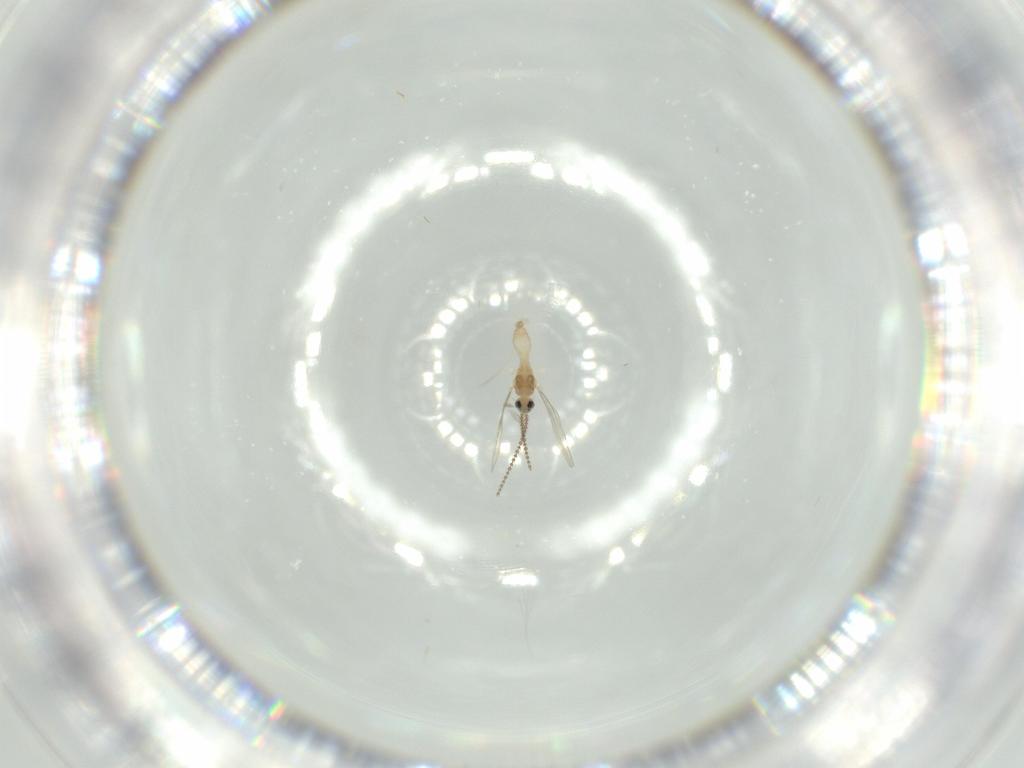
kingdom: Animalia
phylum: Arthropoda
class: Insecta
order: Diptera
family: Cecidomyiidae
